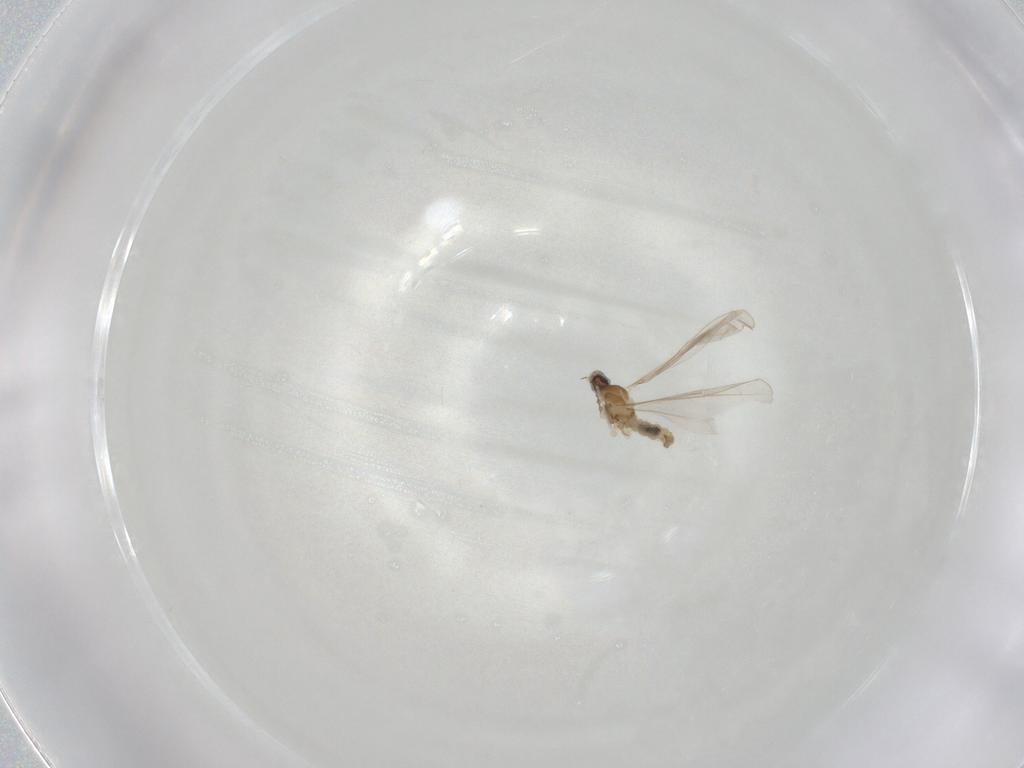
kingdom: Animalia
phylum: Arthropoda
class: Insecta
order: Diptera
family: Cecidomyiidae
